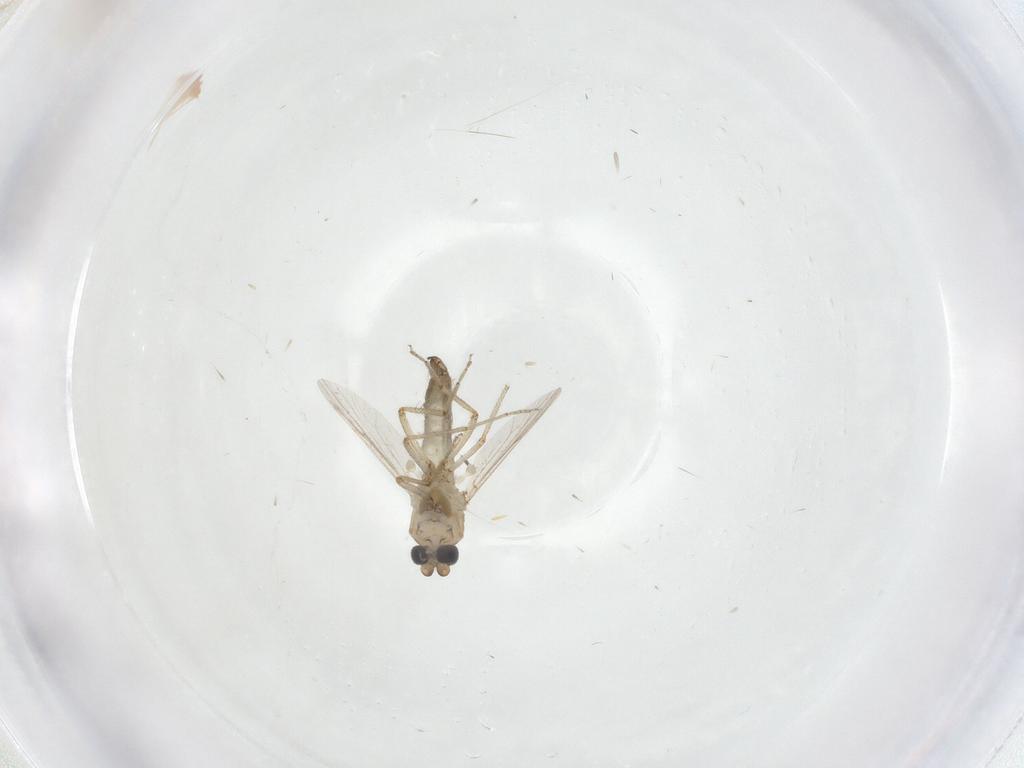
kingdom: Animalia
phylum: Arthropoda
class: Insecta
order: Diptera
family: Ceratopogonidae
